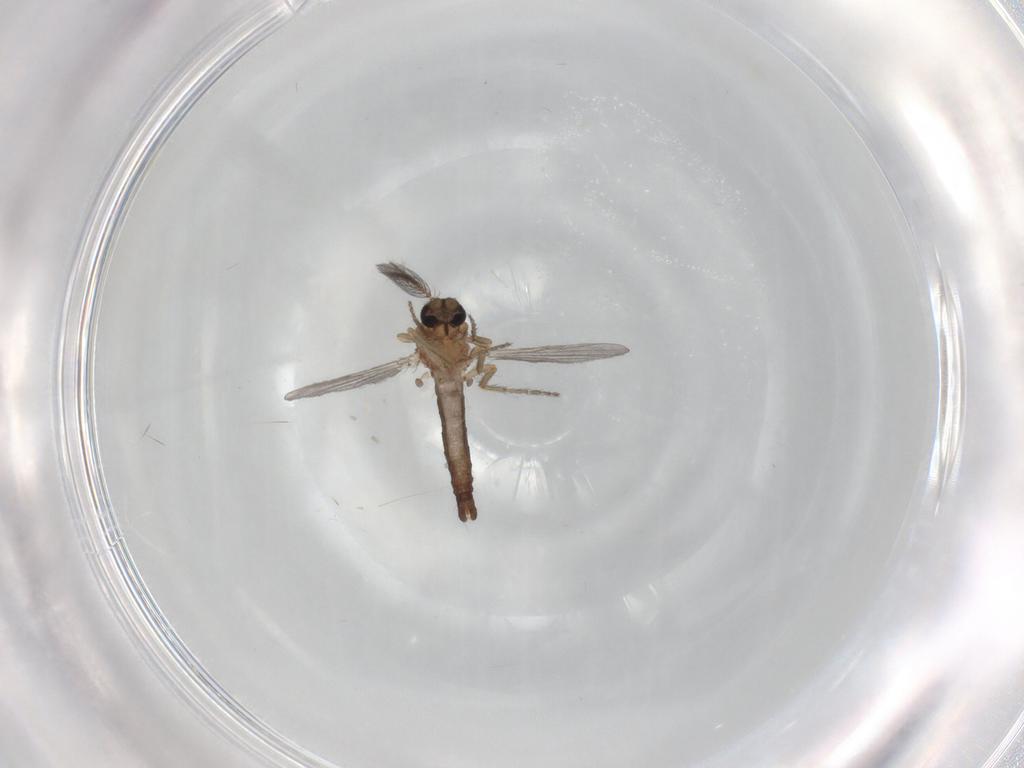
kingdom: Animalia
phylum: Arthropoda
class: Insecta
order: Diptera
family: Ceratopogonidae
